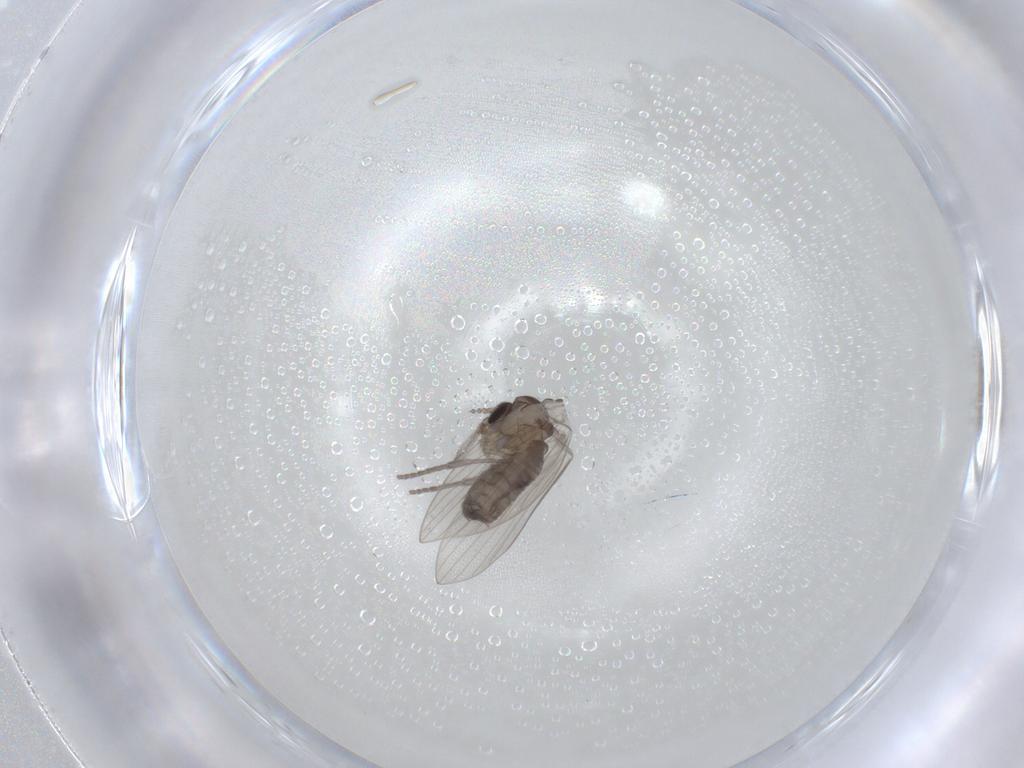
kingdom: Animalia
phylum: Arthropoda
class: Insecta
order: Diptera
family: Psychodidae
